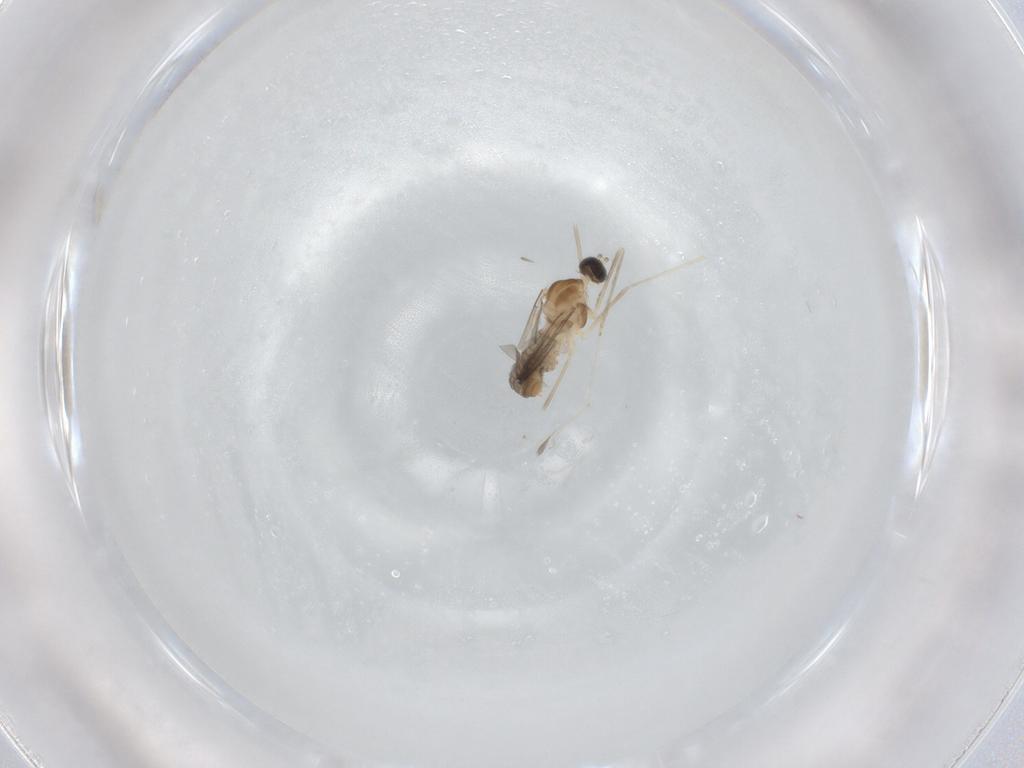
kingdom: Animalia
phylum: Arthropoda
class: Insecta
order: Diptera
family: Cecidomyiidae
